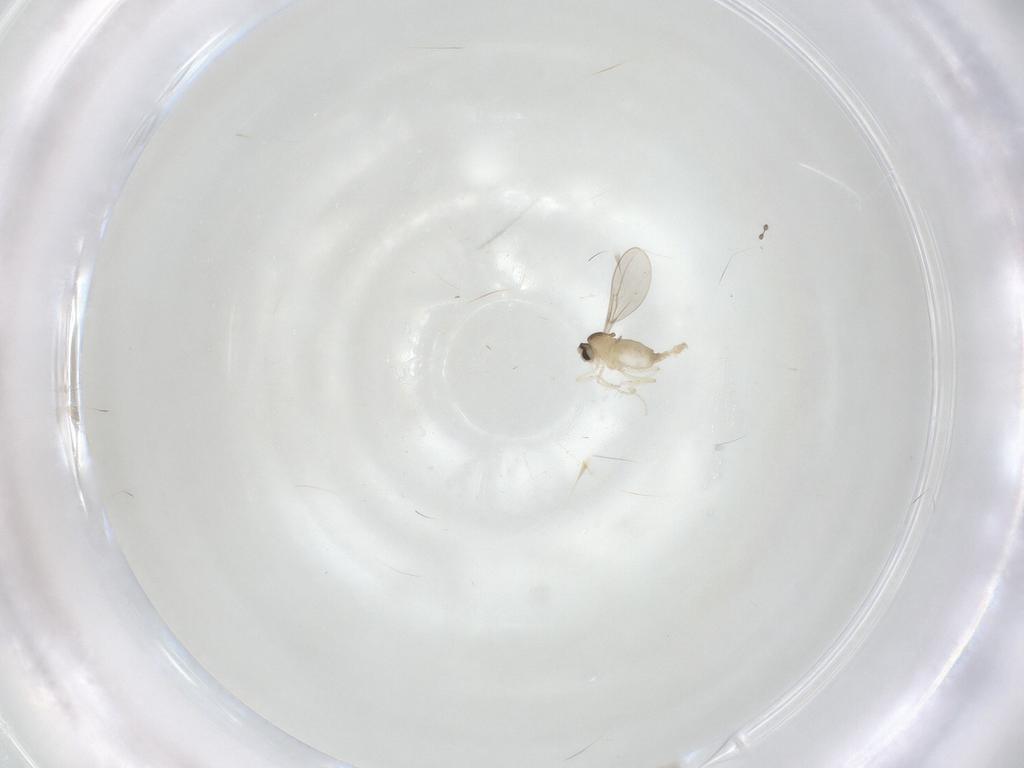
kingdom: Animalia
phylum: Arthropoda
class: Insecta
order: Diptera
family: Cecidomyiidae
